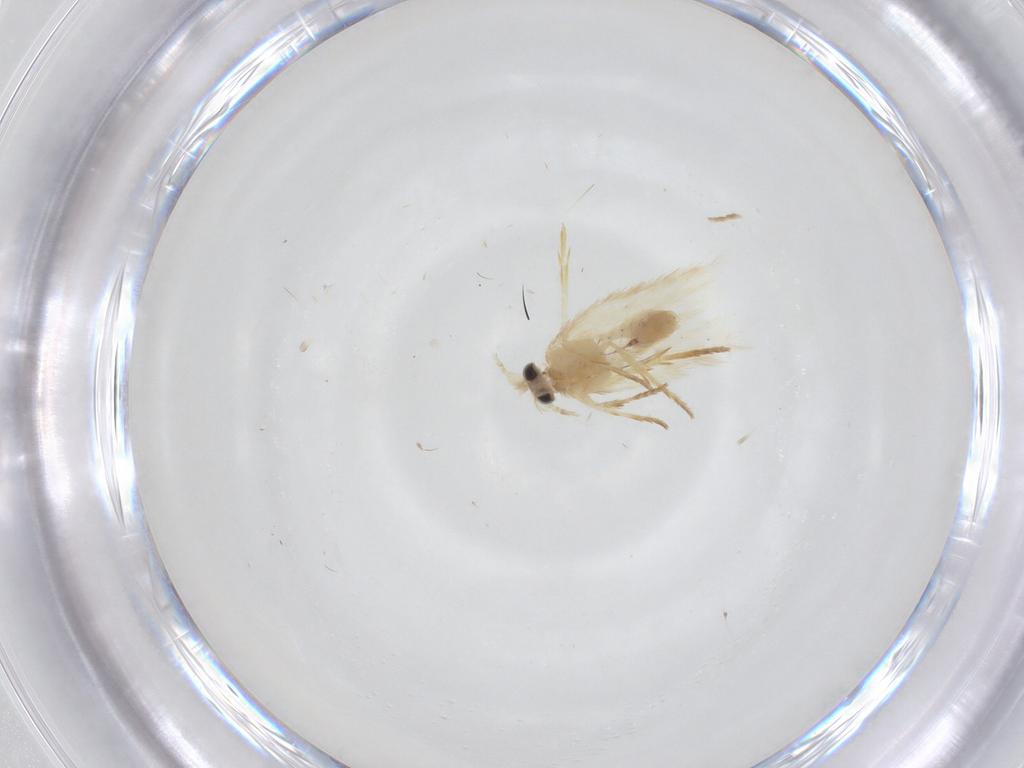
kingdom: Animalia
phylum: Arthropoda
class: Insecta
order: Lepidoptera
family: Nepticulidae
